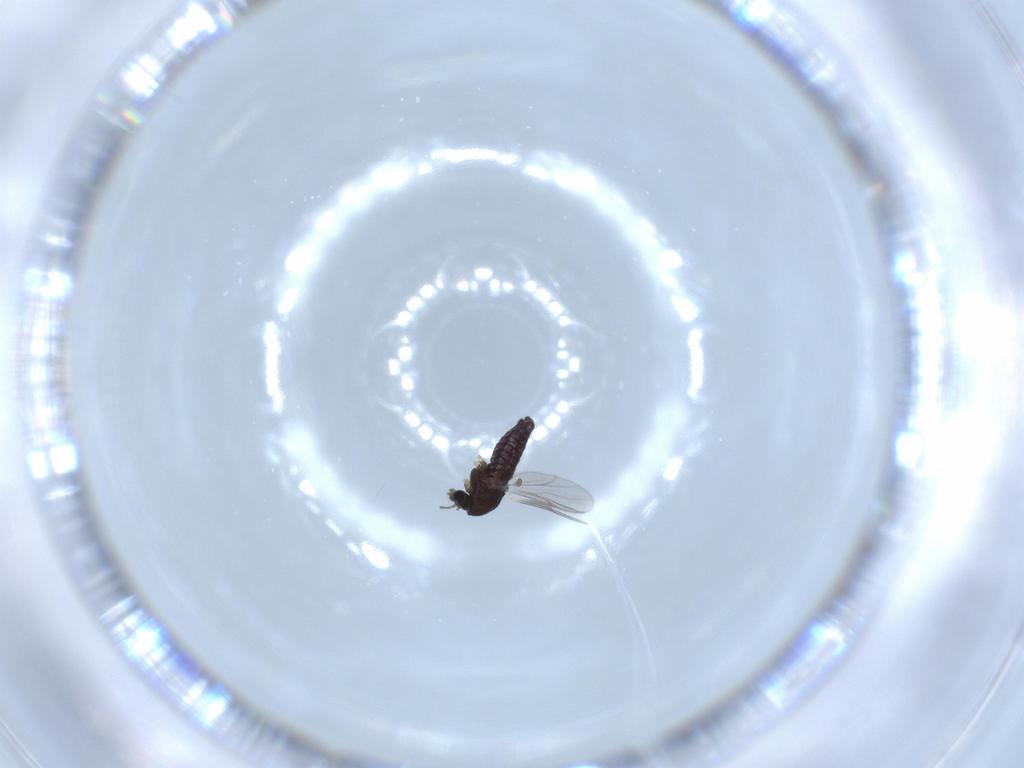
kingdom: Animalia
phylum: Arthropoda
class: Insecta
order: Diptera
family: Chironomidae
